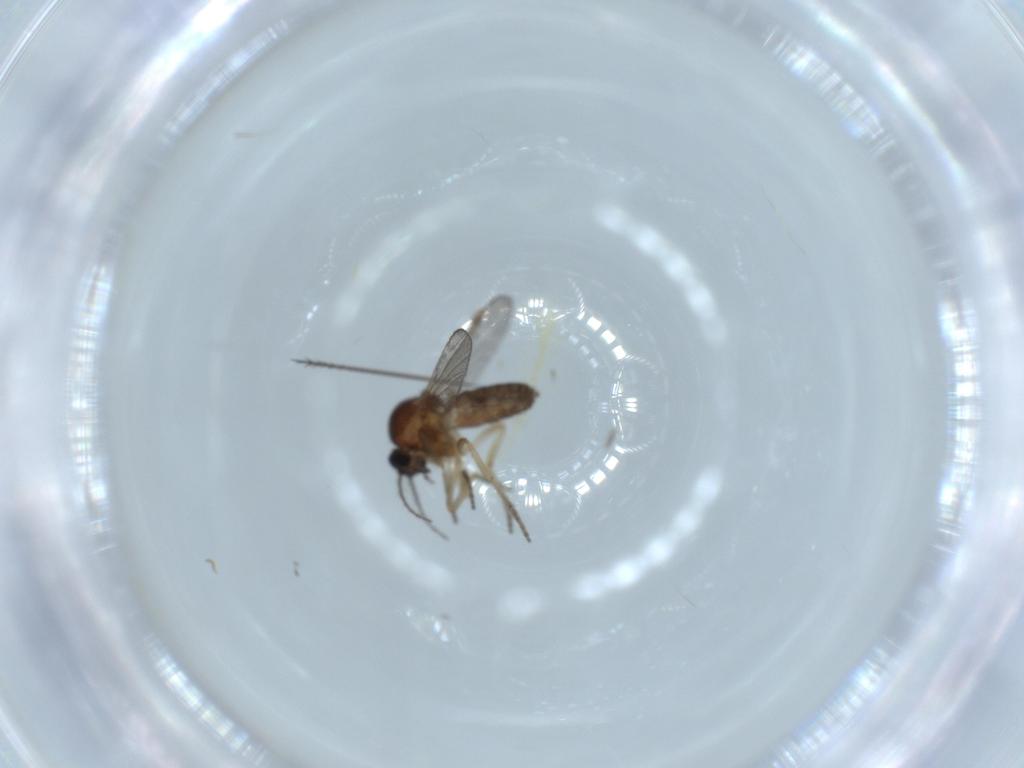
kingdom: Animalia
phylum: Arthropoda
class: Insecta
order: Diptera
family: Ceratopogonidae
